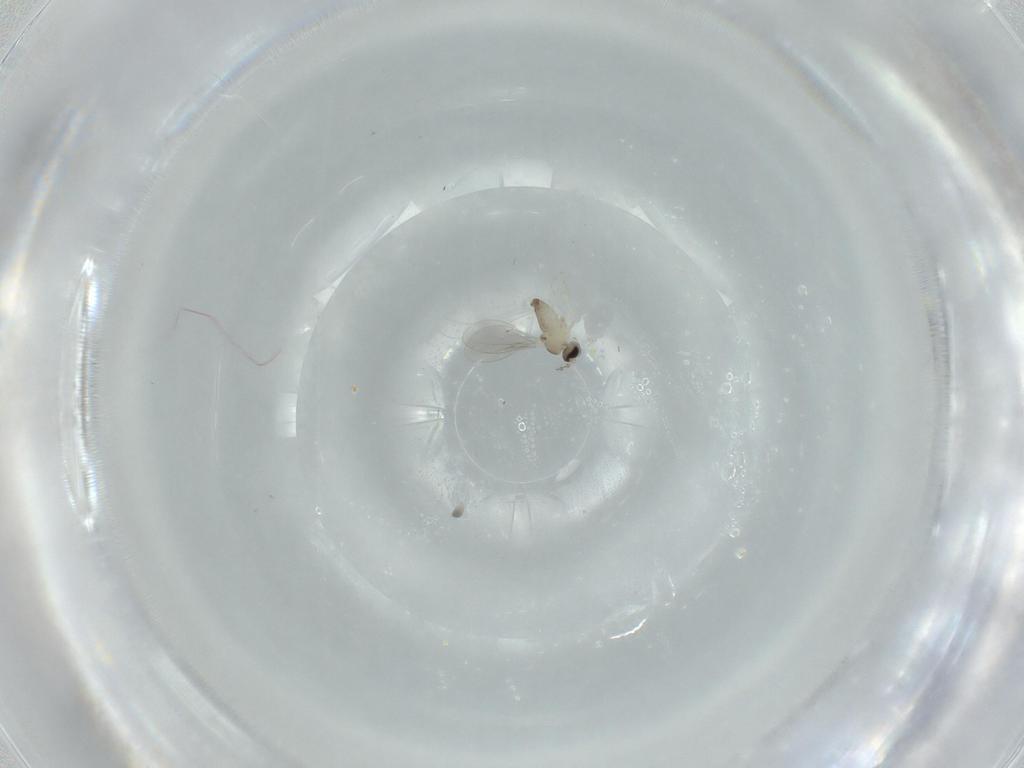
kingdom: Animalia
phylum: Arthropoda
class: Insecta
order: Diptera
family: Cecidomyiidae
